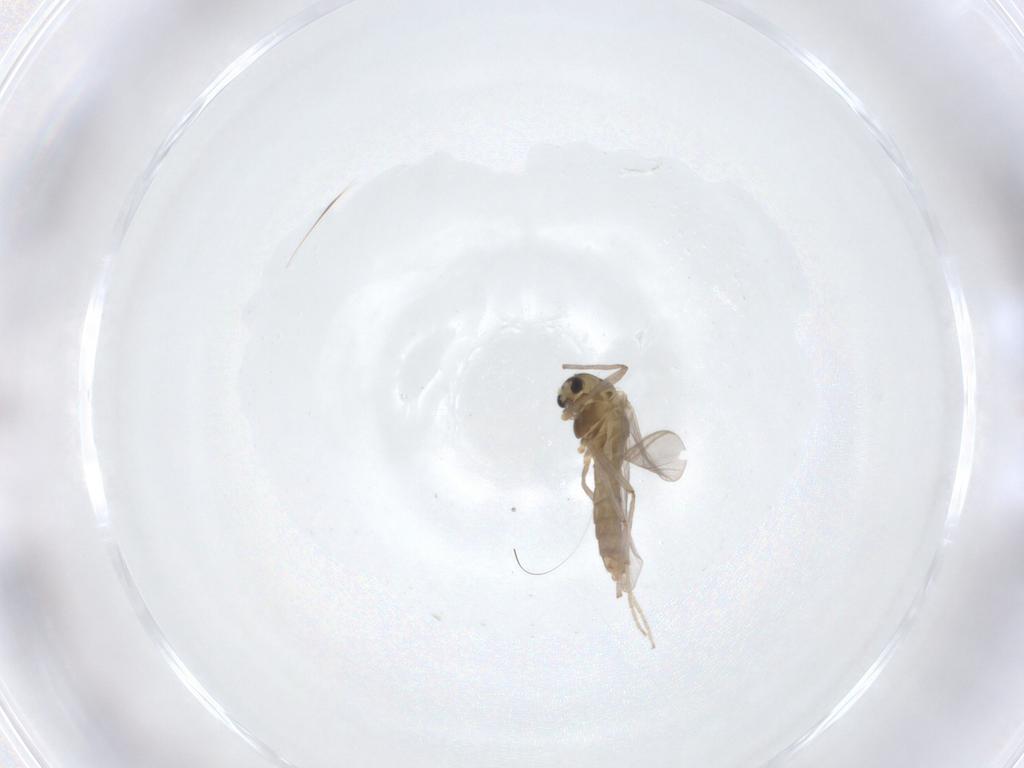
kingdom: Animalia
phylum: Arthropoda
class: Insecta
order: Diptera
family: Chironomidae
